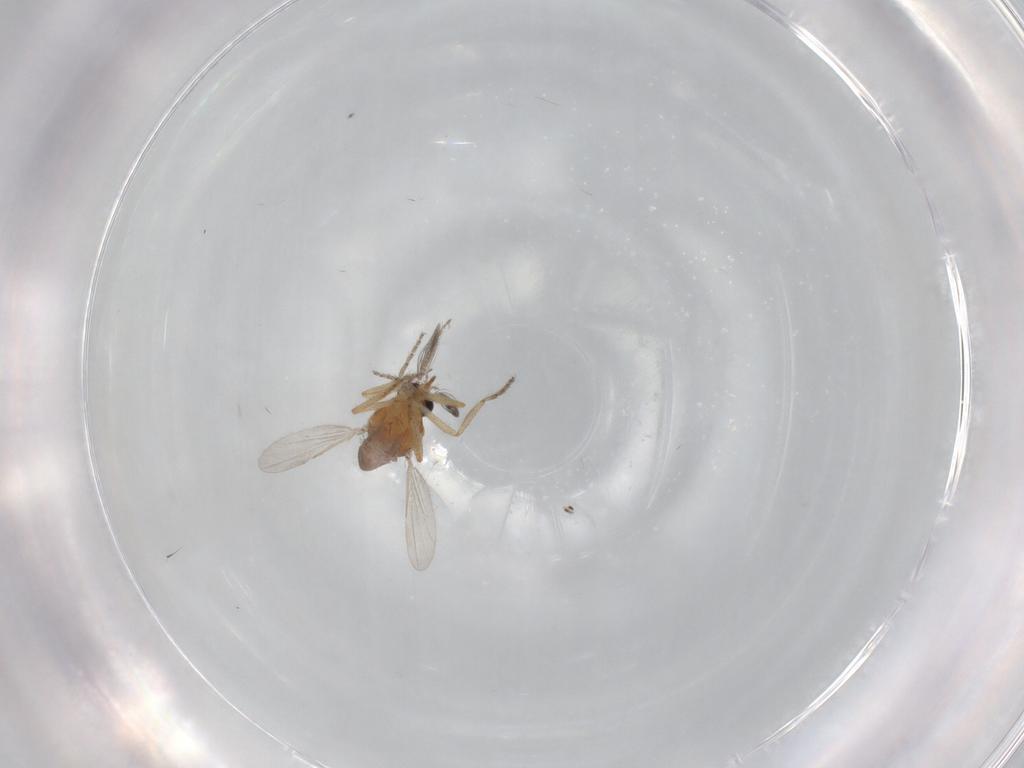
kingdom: Animalia
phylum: Arthropoda
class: Insecta
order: Diptera
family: Ceratopogonidae
